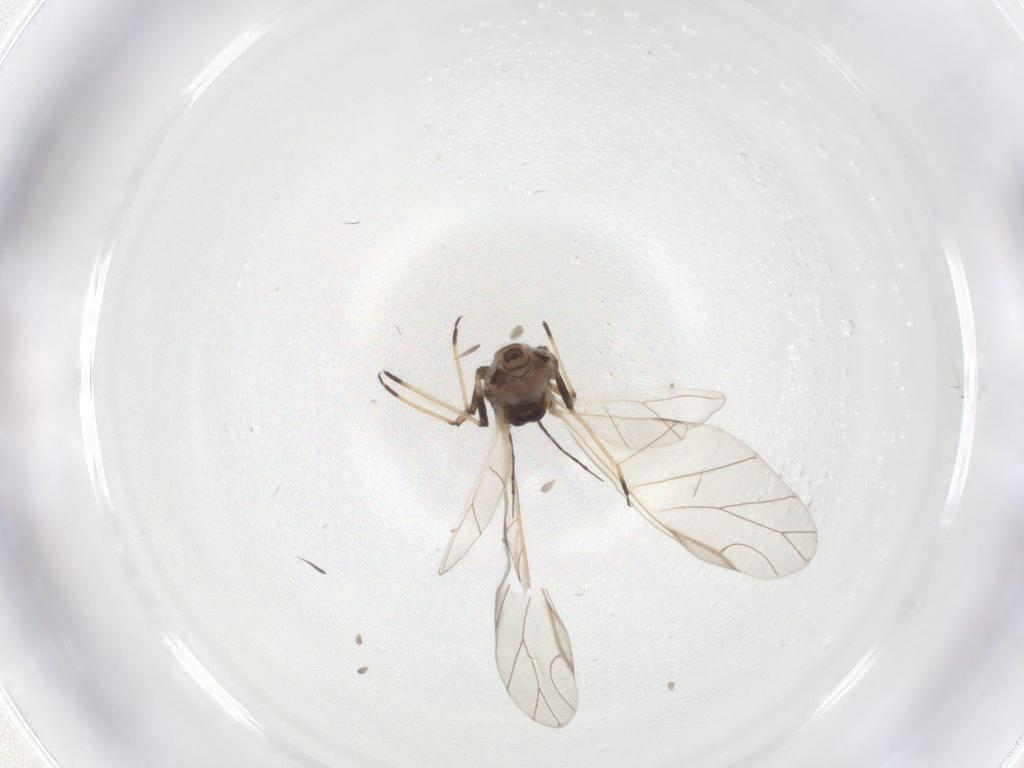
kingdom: Animalia
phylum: Arthropoda
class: Insecta
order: Hemiptera
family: Aphididae
